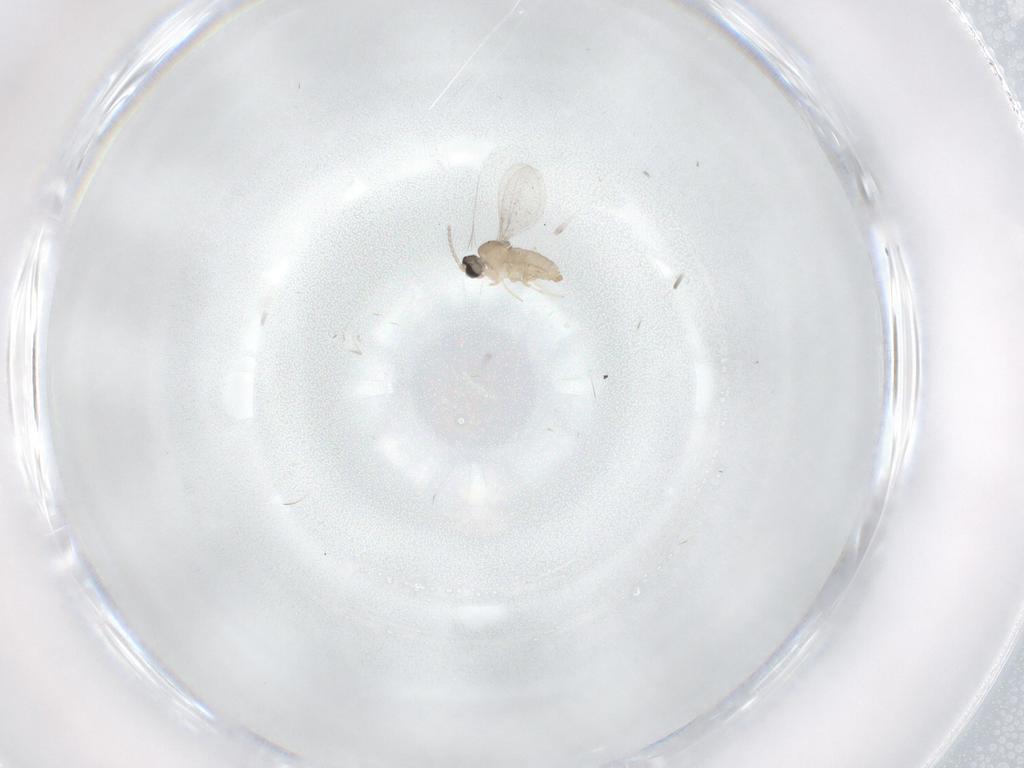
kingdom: Animalia
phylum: Arthropoda
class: Insecta
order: Diptera
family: Cecidomyiidae
